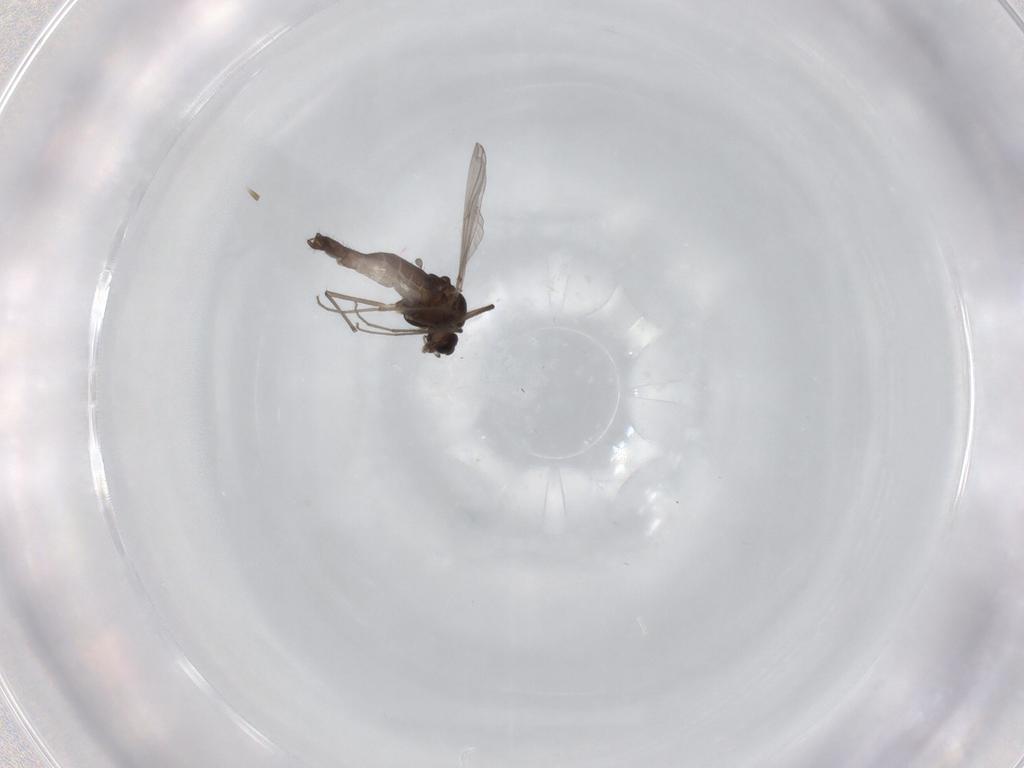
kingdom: Animalia
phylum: Arthropoda
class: Insecta
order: Diptera
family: Chironomidae
